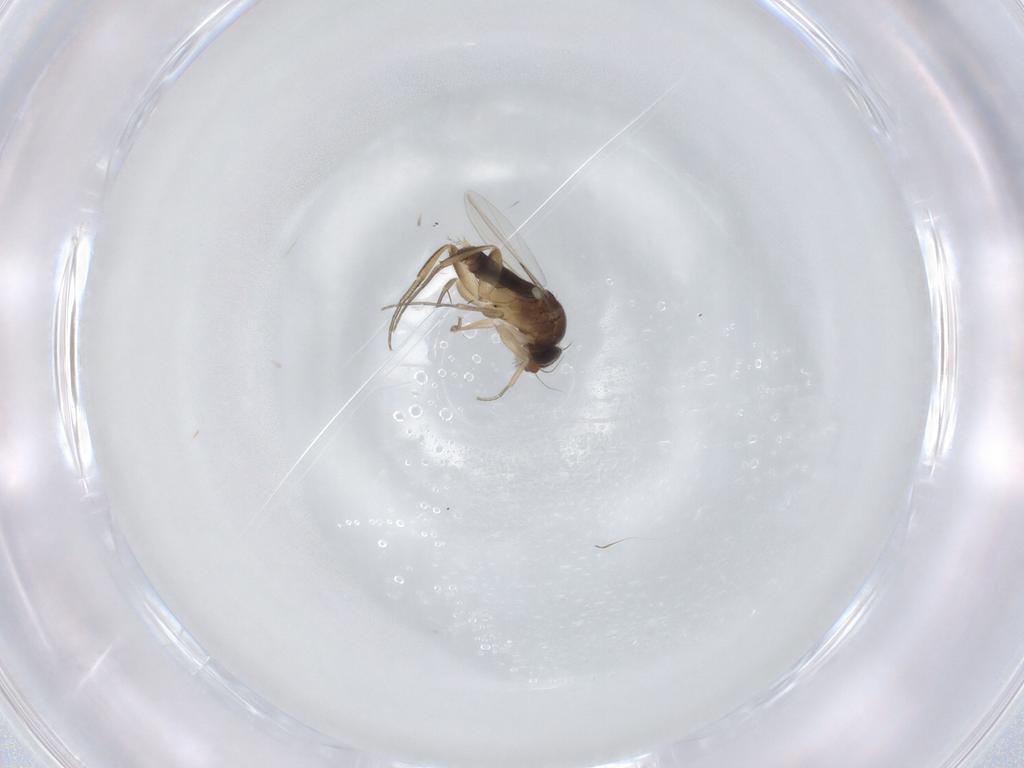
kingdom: Animalia
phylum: Arthropoda
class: Insecta
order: Diptera
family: Phoridae
